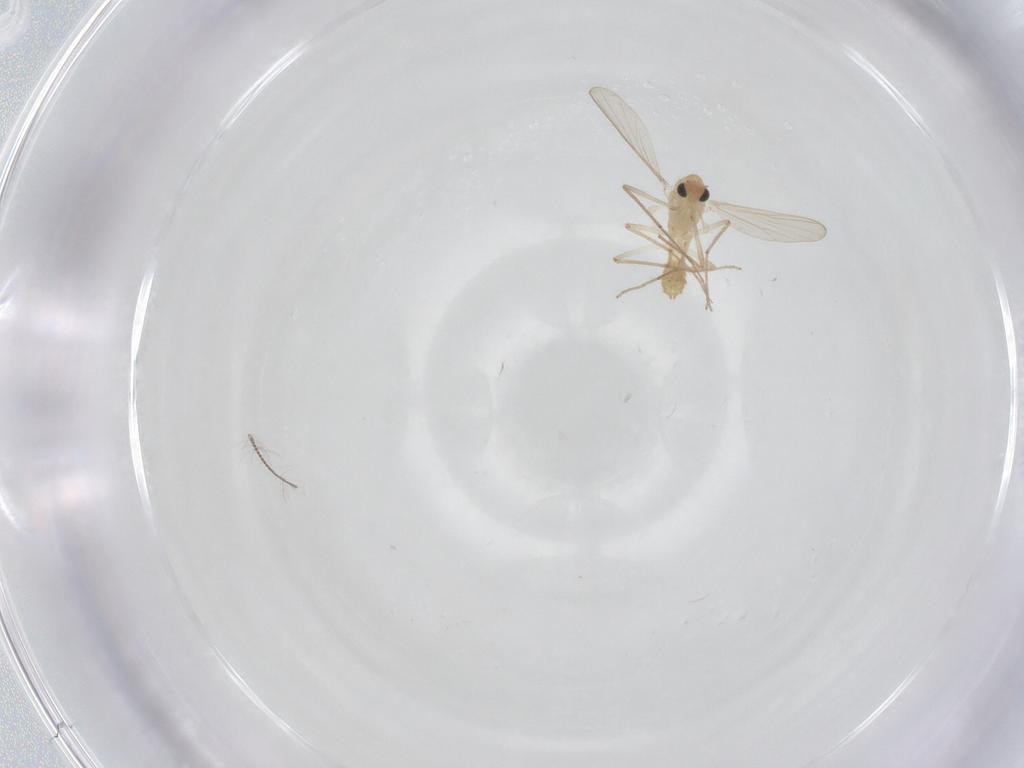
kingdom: Animalia
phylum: Arthropoda
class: Insecta
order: Diptera
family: Chironomidae
